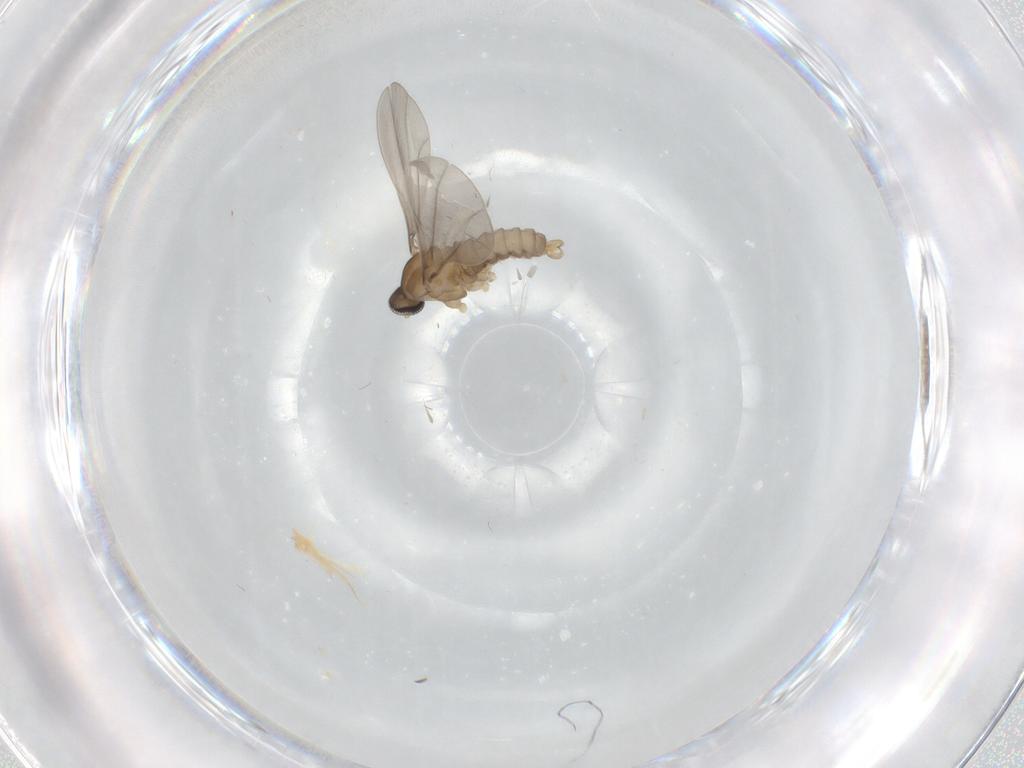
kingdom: Animalia
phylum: Arthropoda
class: Insecta
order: Diptera
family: Cecidomyiidae
